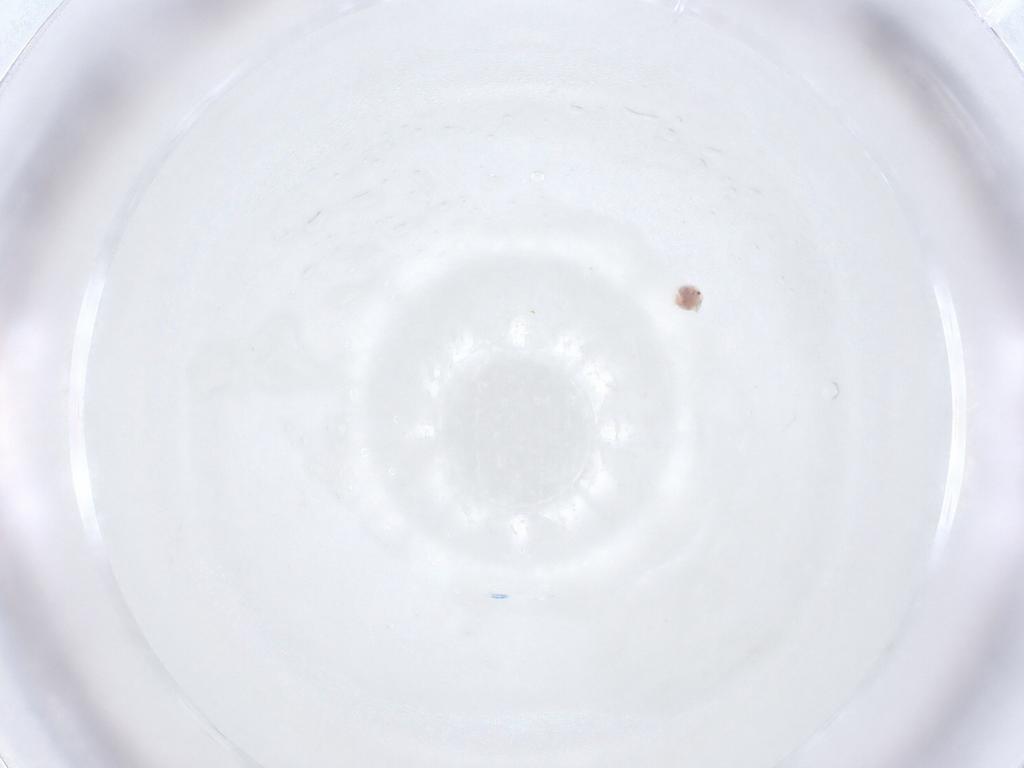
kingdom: Animalia
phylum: Arthropoda
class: Arachnida
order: Trombidiformes
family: Unionicolidae
